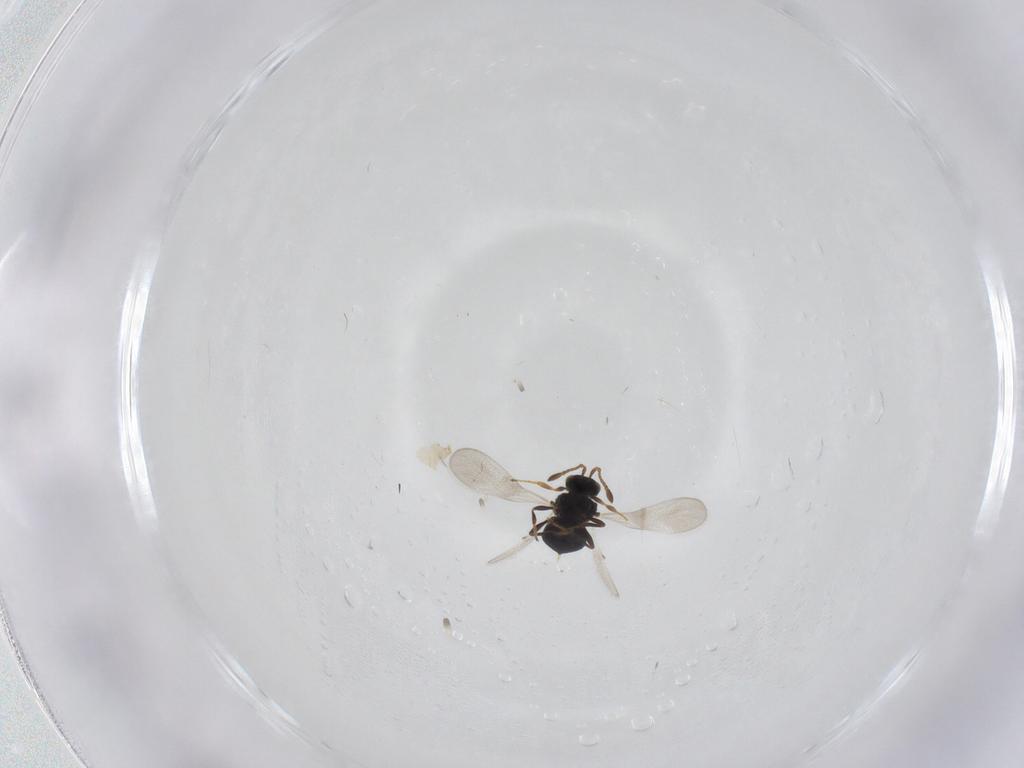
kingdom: Animalia
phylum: Arthropoda
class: Insecta
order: Hymenoptera
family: Platygastridae
